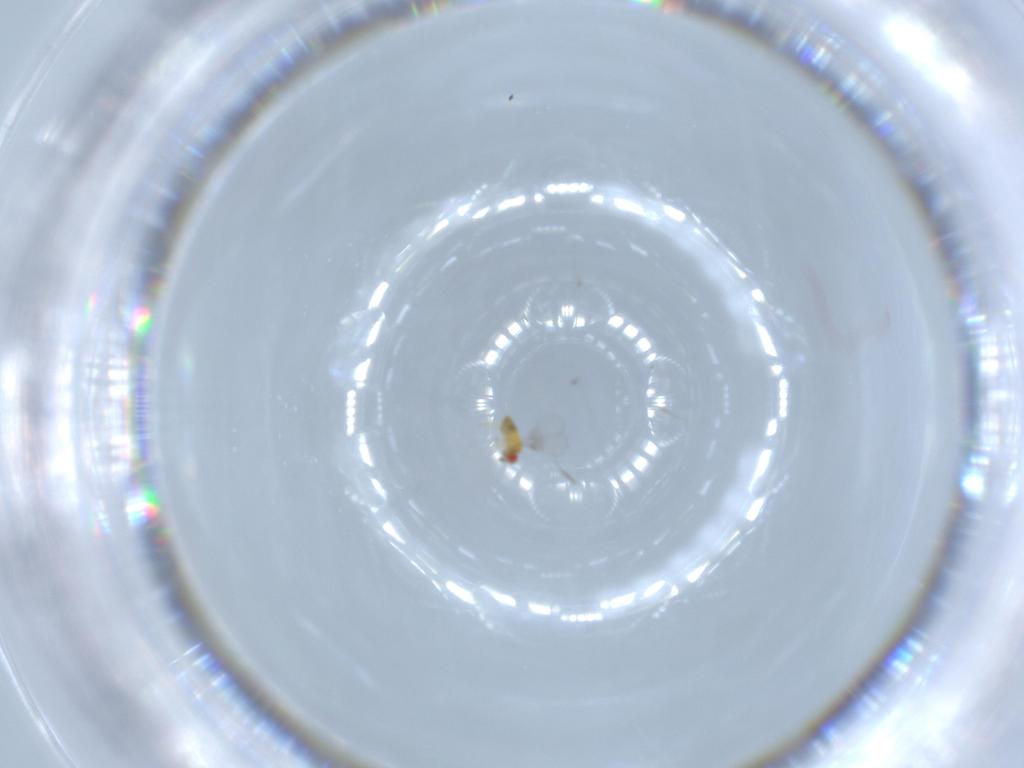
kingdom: Animalia
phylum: Arthropoda
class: Insecta
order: Hymenoptera
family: Trichogrammatidae
